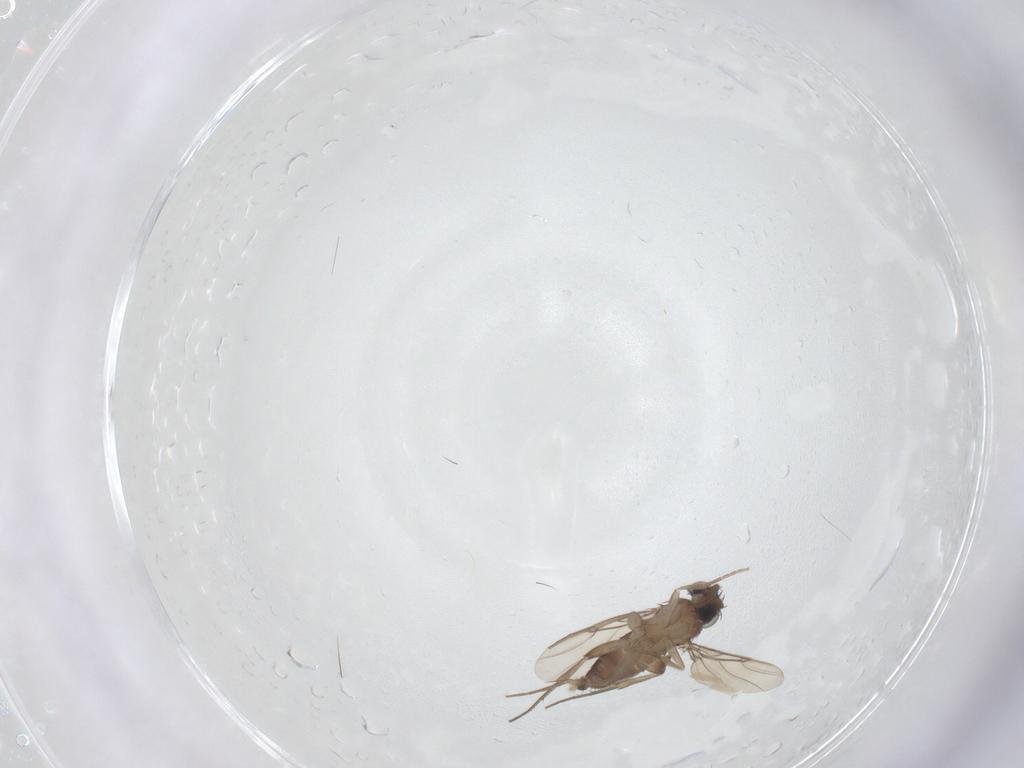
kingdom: Animalia
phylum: Arthropoda
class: Insecta
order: Diptera
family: Phoridae
